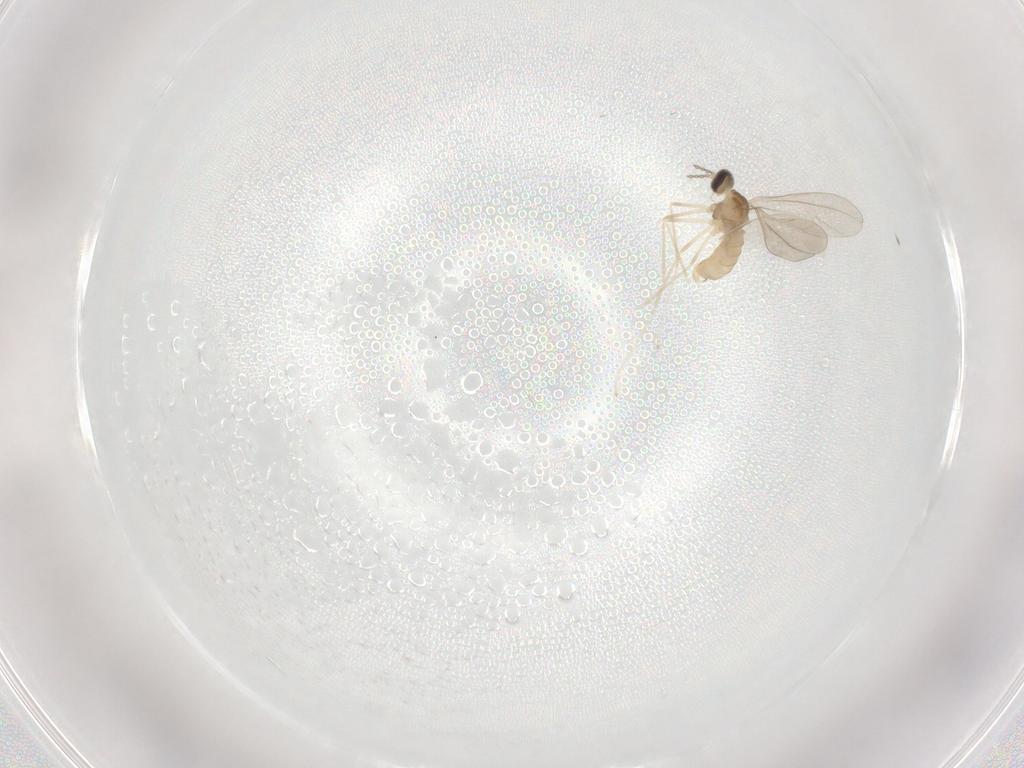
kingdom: Animalia
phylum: Arthropoda
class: Insecta
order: Diptera
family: Cecidomyiidae
